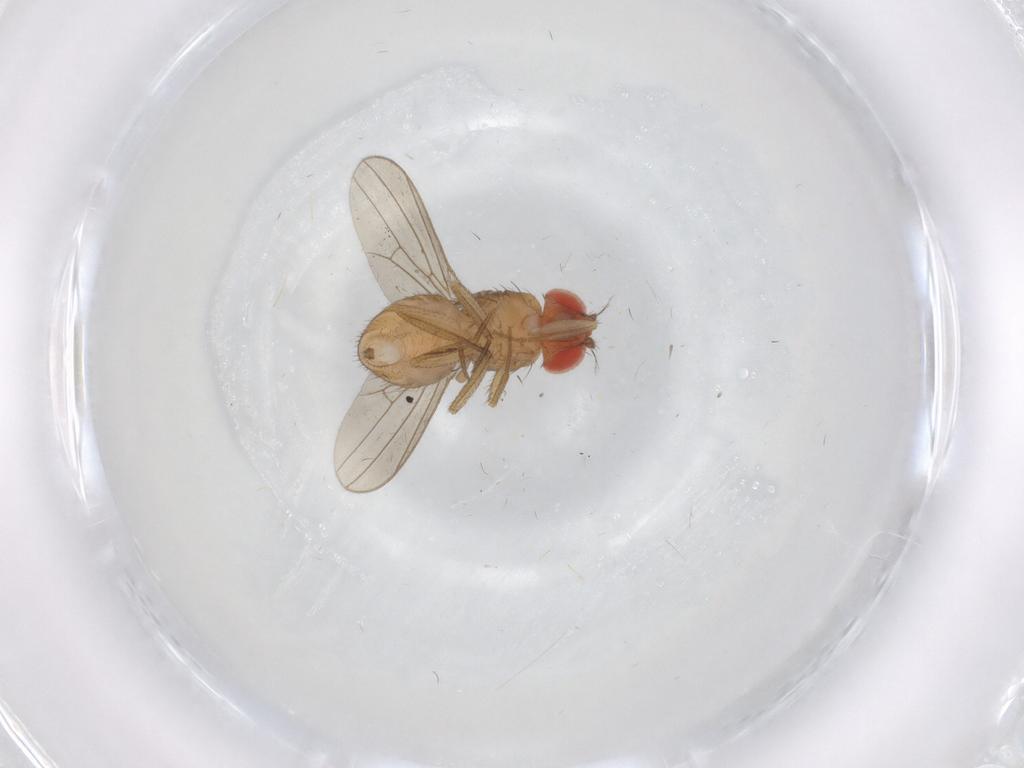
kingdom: Animalia
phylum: Arthropoda
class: Insecta
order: Diptera
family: Drosophilidae
